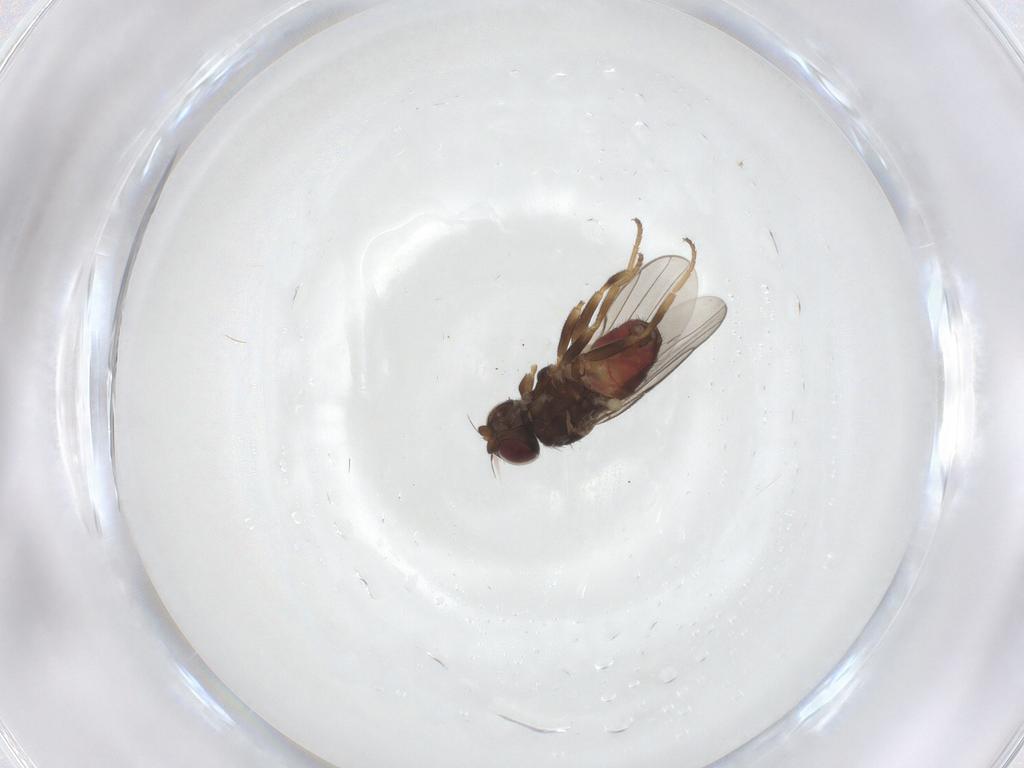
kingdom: Animalia
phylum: Arthropoda
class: Insecta
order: Diptera
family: Chloropidae
